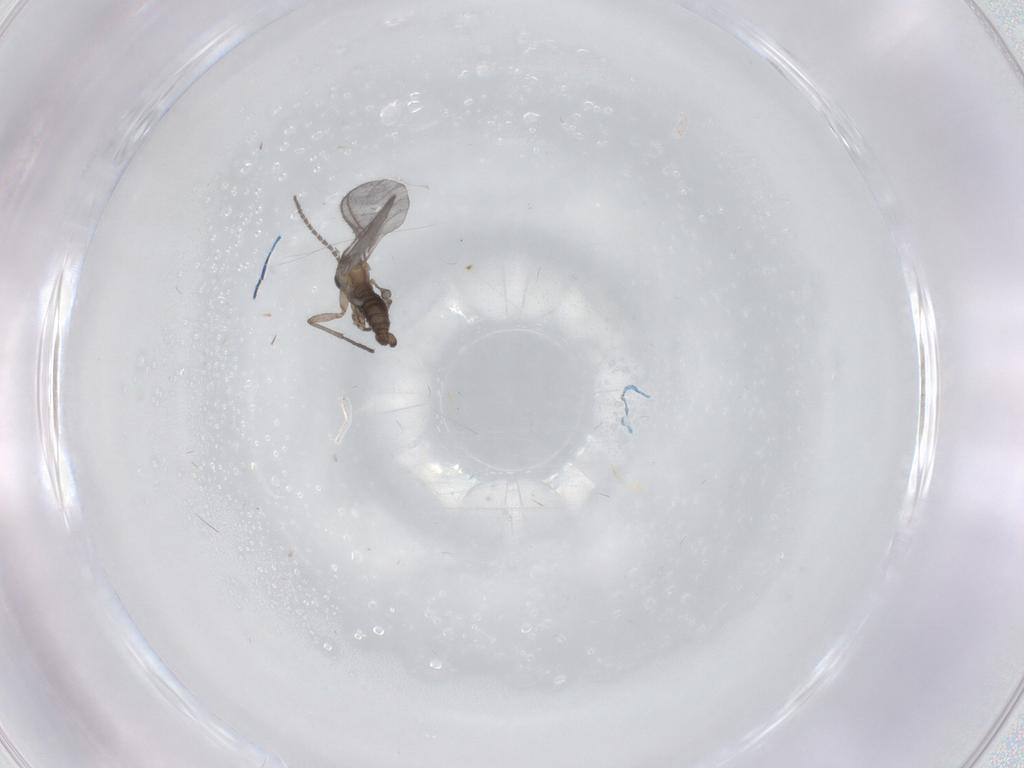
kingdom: Animalia
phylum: Arthropoda
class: Insecta
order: Diptera
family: Sciaridae
